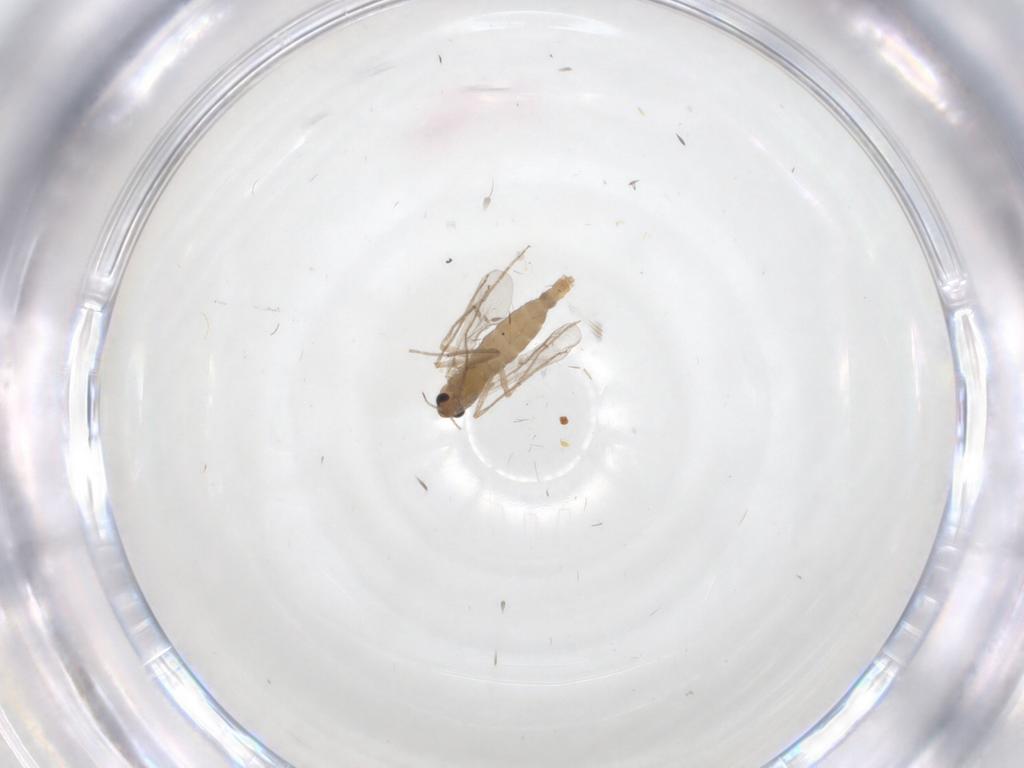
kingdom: Animalia
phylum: Arthropoda
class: Insecta
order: Diptera
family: Chironomidae
